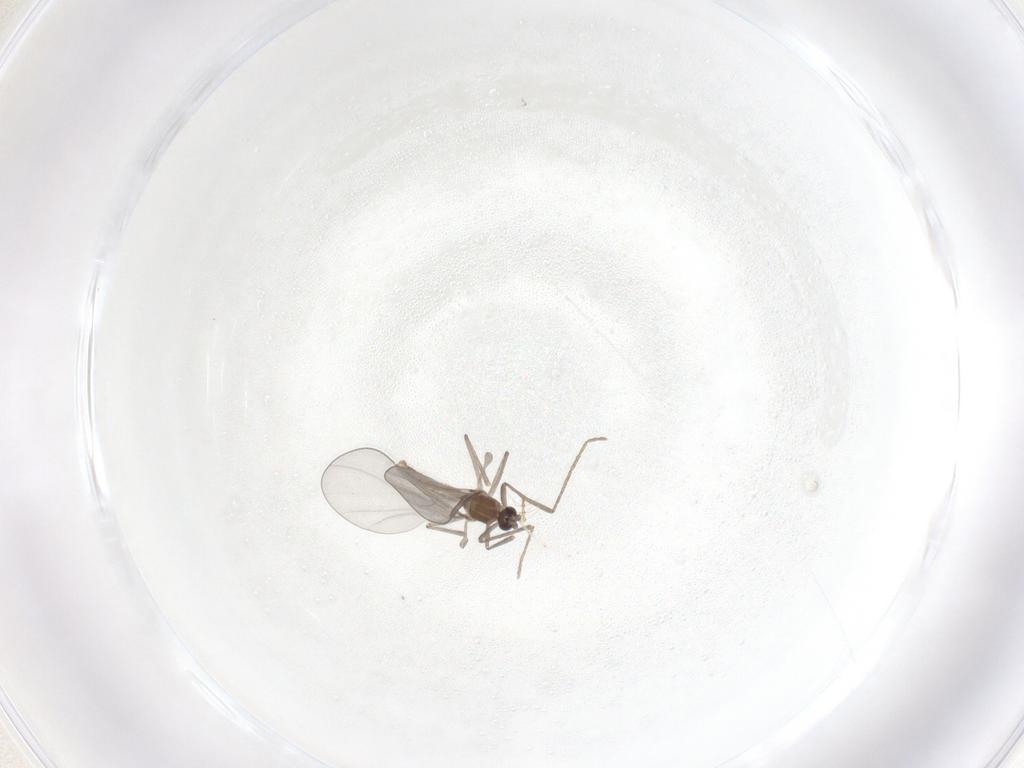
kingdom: Animalia
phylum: Arthropoda
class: Insecta
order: Diptera
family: Cecidomyiidae
